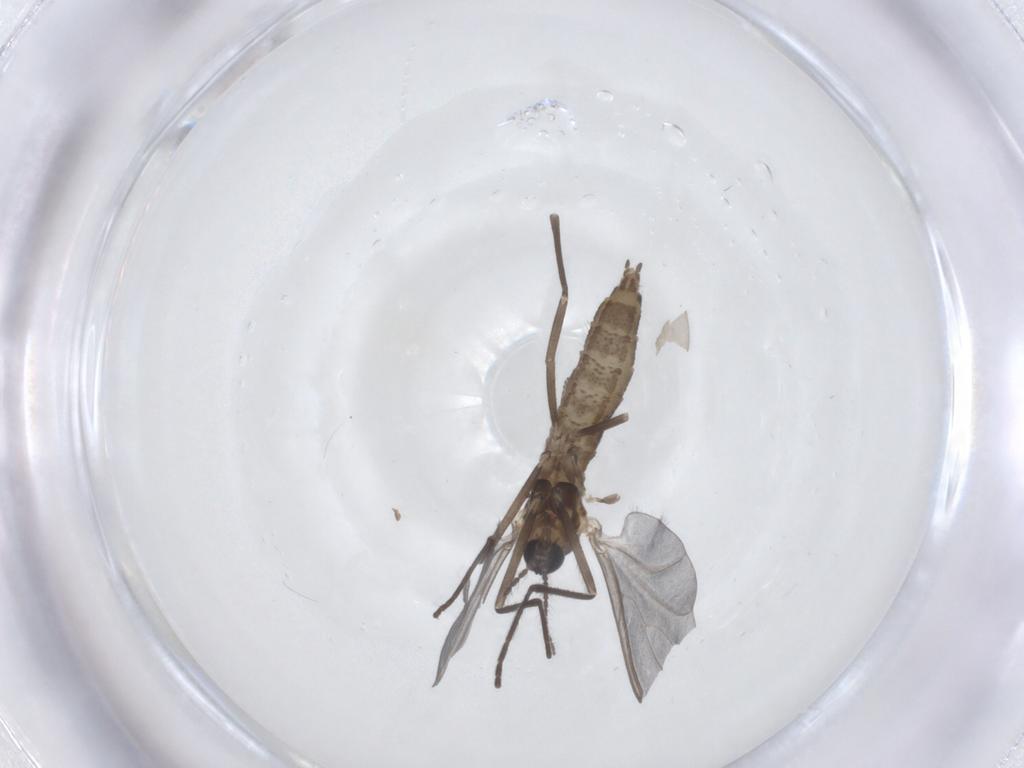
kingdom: Animalia
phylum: Arthropoda
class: Insecta
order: Diptera
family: Cecidomyiidae
